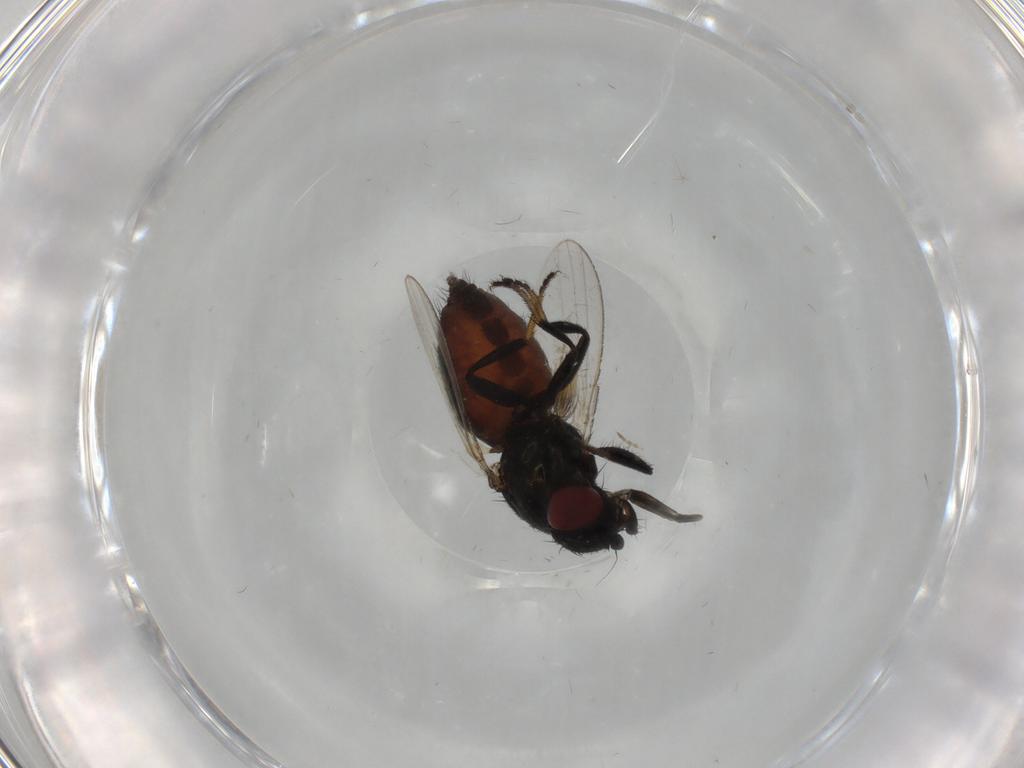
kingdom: Animalia
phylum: Arthropoda
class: Insecta
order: Diptera
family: Milichiidae
